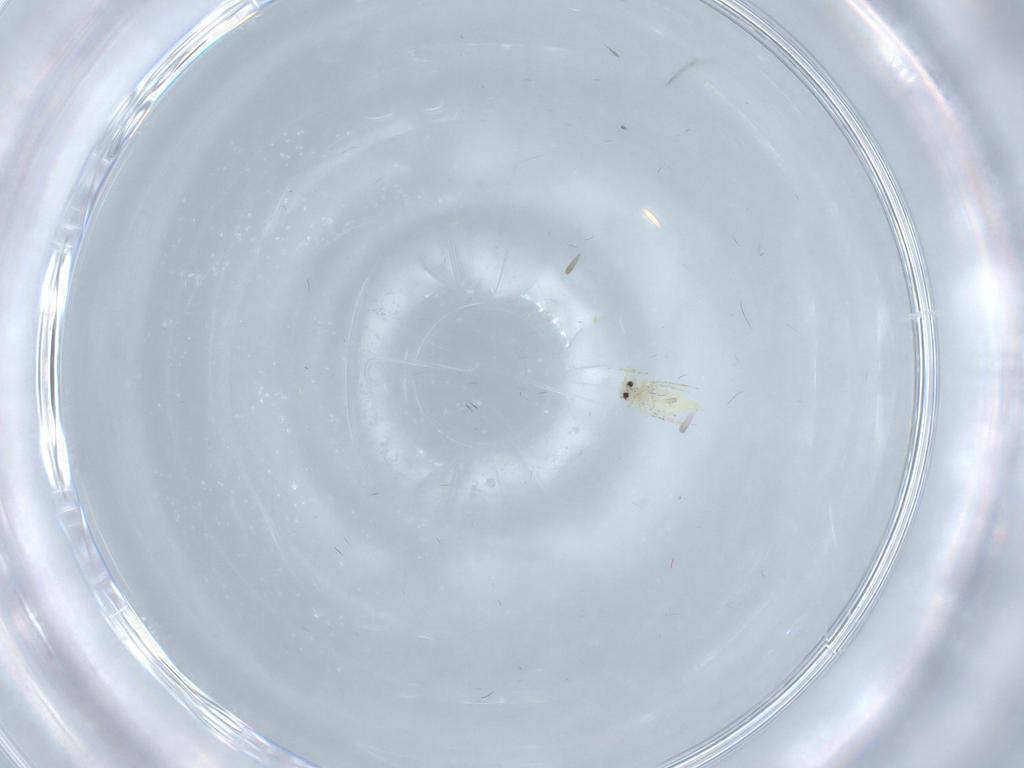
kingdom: Animalia
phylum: Arthropoda
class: Insecta
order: Hemiptera
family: Aleyrodidae
